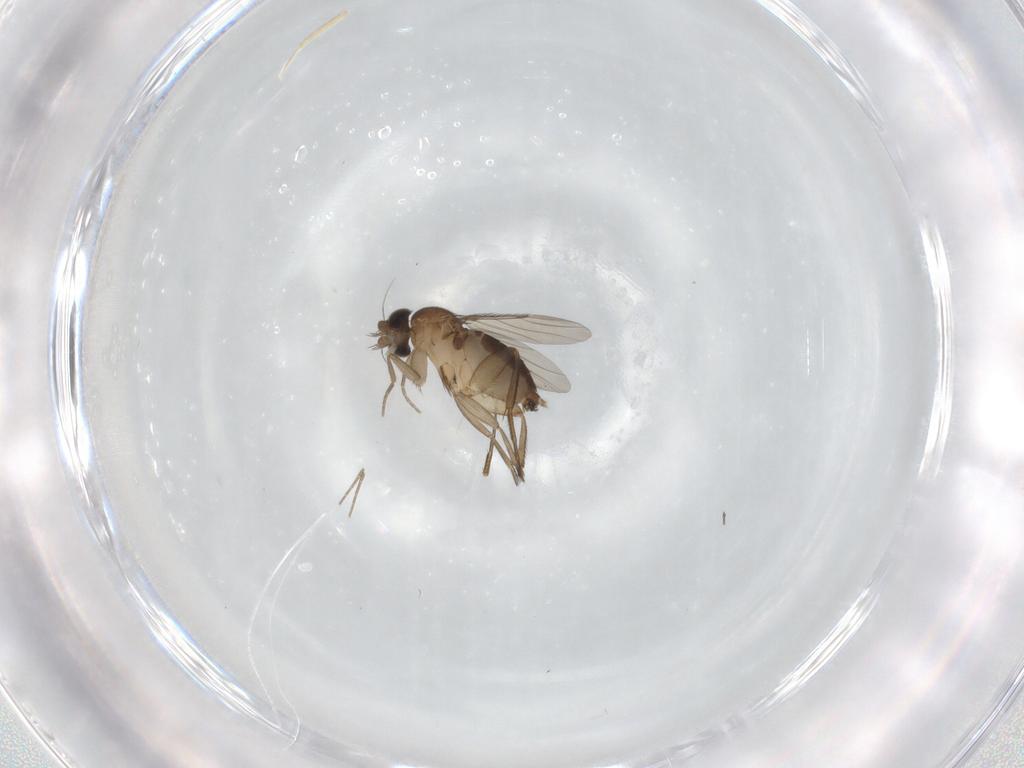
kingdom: Animalia
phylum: Arthropoda
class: Insecta
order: Diptera
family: Phoridae
